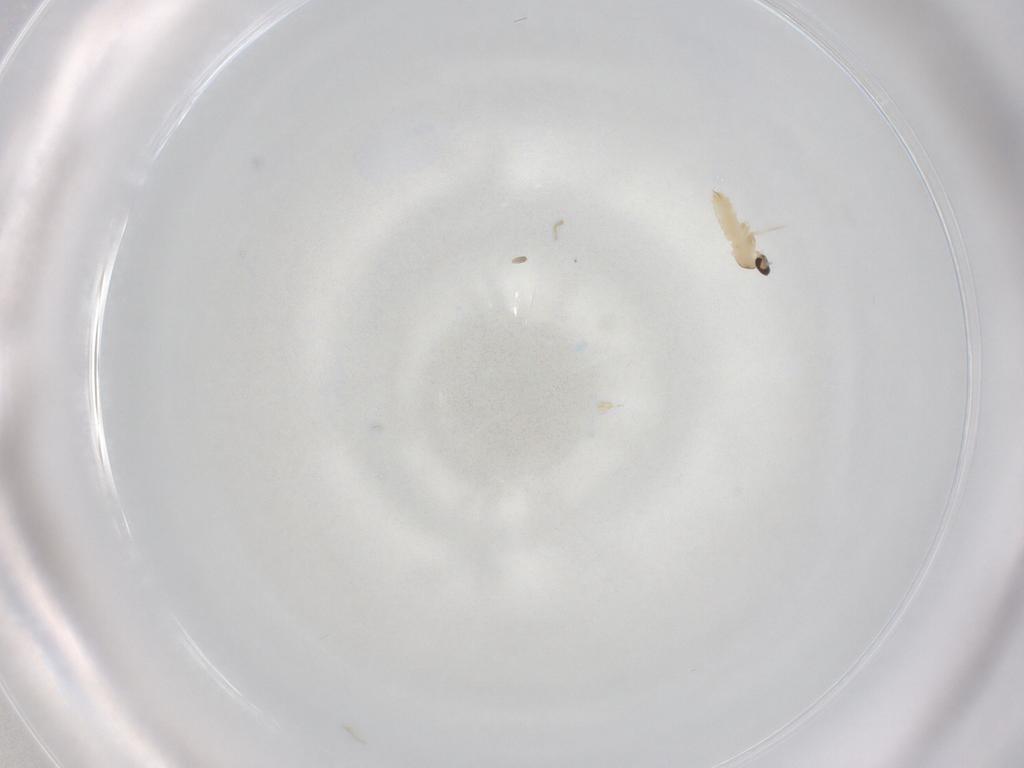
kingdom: Animalia
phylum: Arthropoda
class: Insecta
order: Diptera
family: Cecidomyiidae
